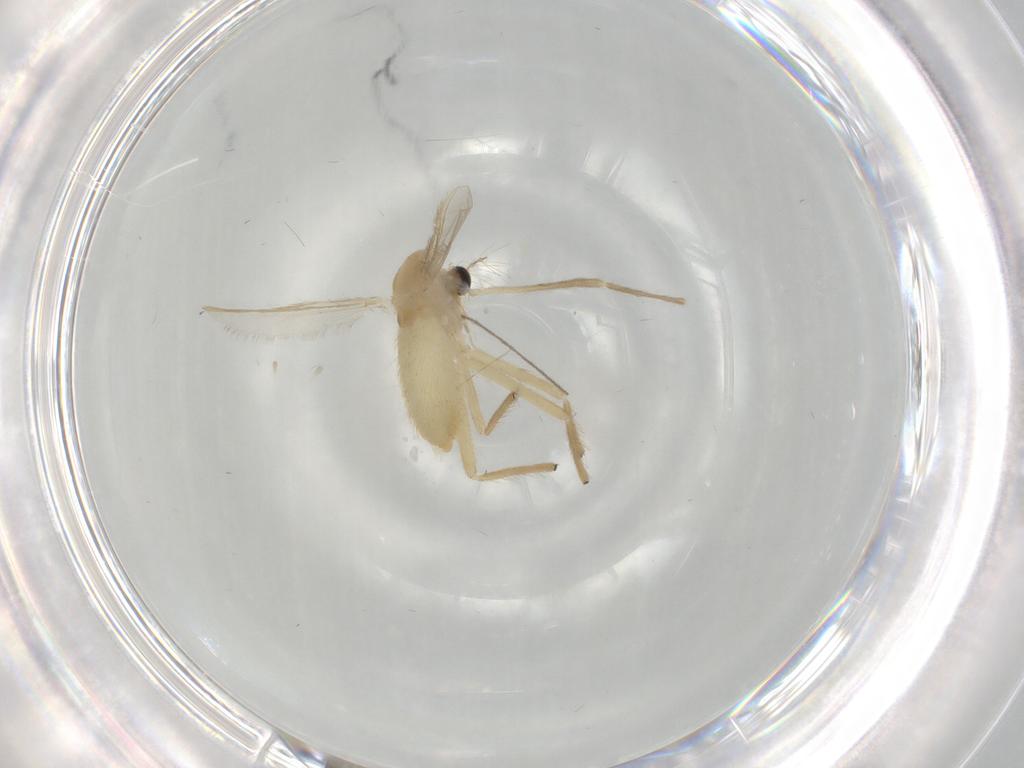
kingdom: Animalia
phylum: Arthropoda
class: Insecta
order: Diptera
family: Chironomidae
